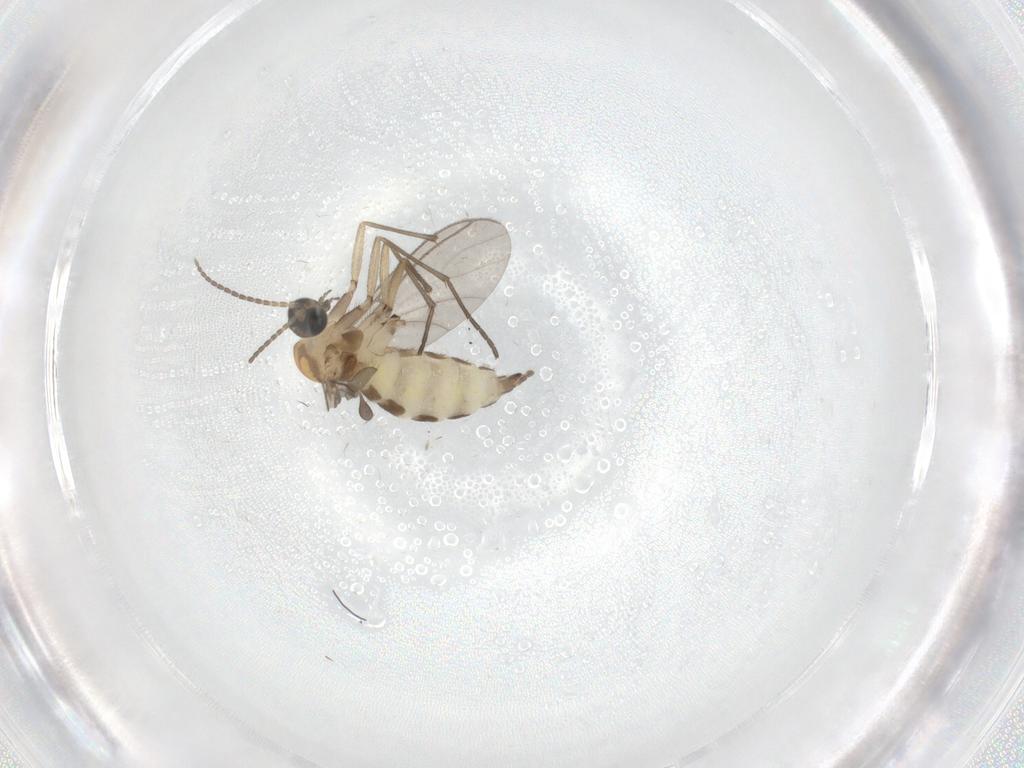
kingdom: Animalia
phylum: Arthropoda
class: Insecta
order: Diptera
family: Sciaridae
